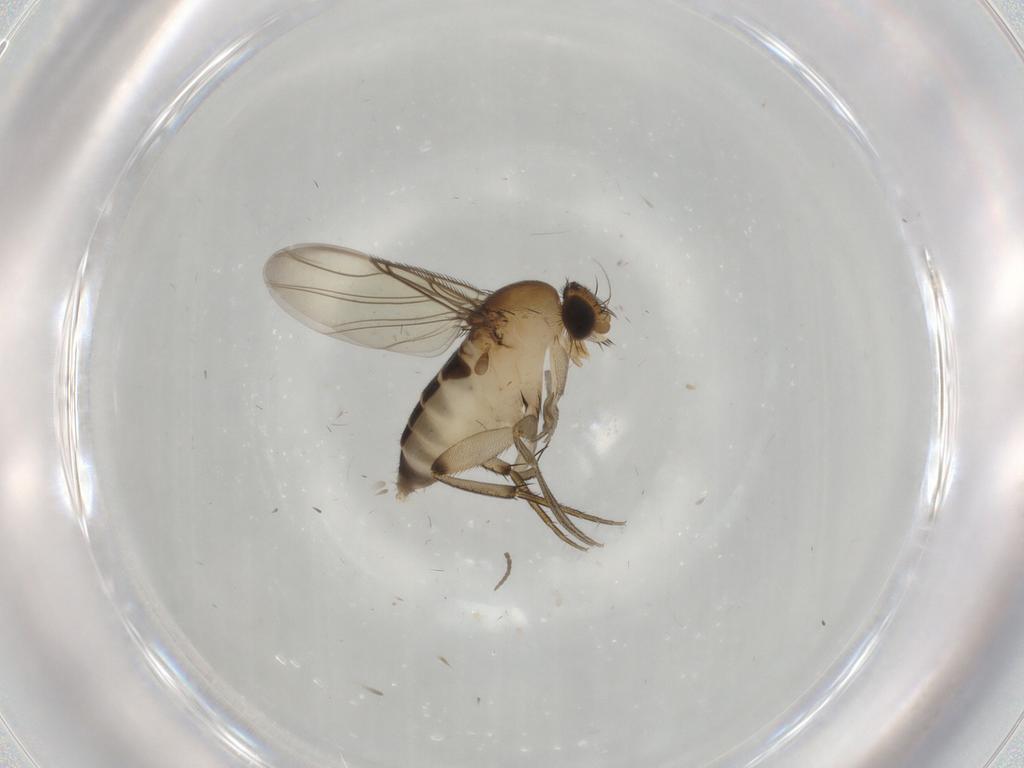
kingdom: Animalia
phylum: Arthropoda
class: Insecta
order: Diptera
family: Phoridae
